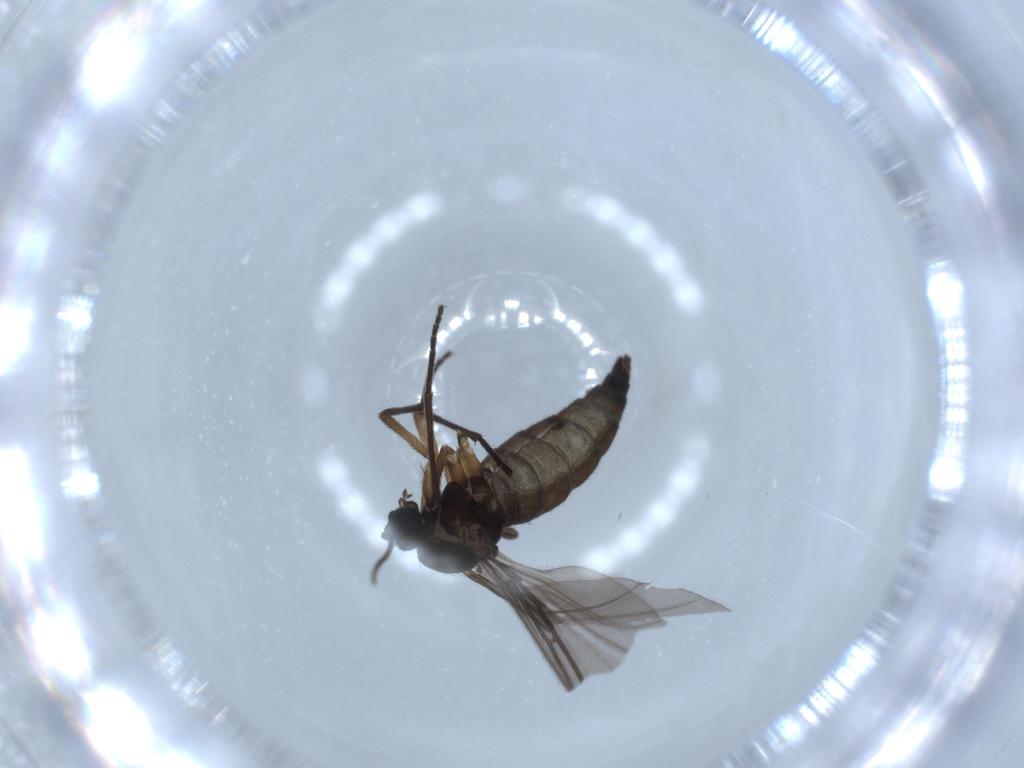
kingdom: Animalia
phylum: Arthropoda
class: Insecta
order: Diptera
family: Sciaridae
